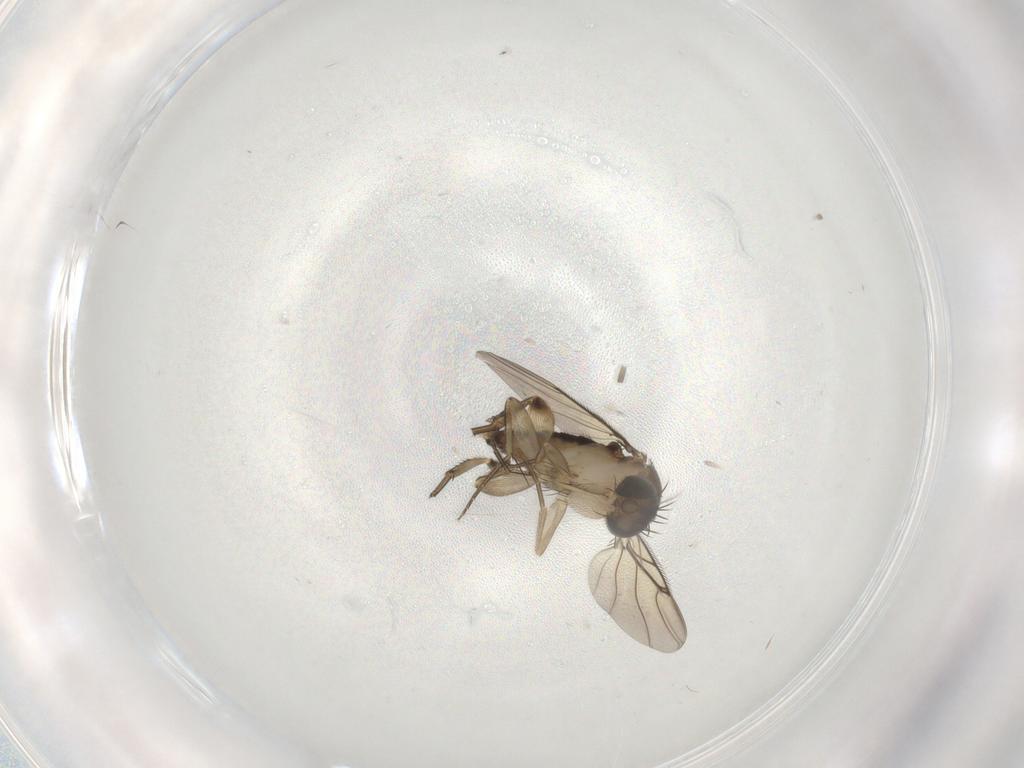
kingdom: Animalia
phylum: Arthropoda
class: Insecta
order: Diptera
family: Phoridae
